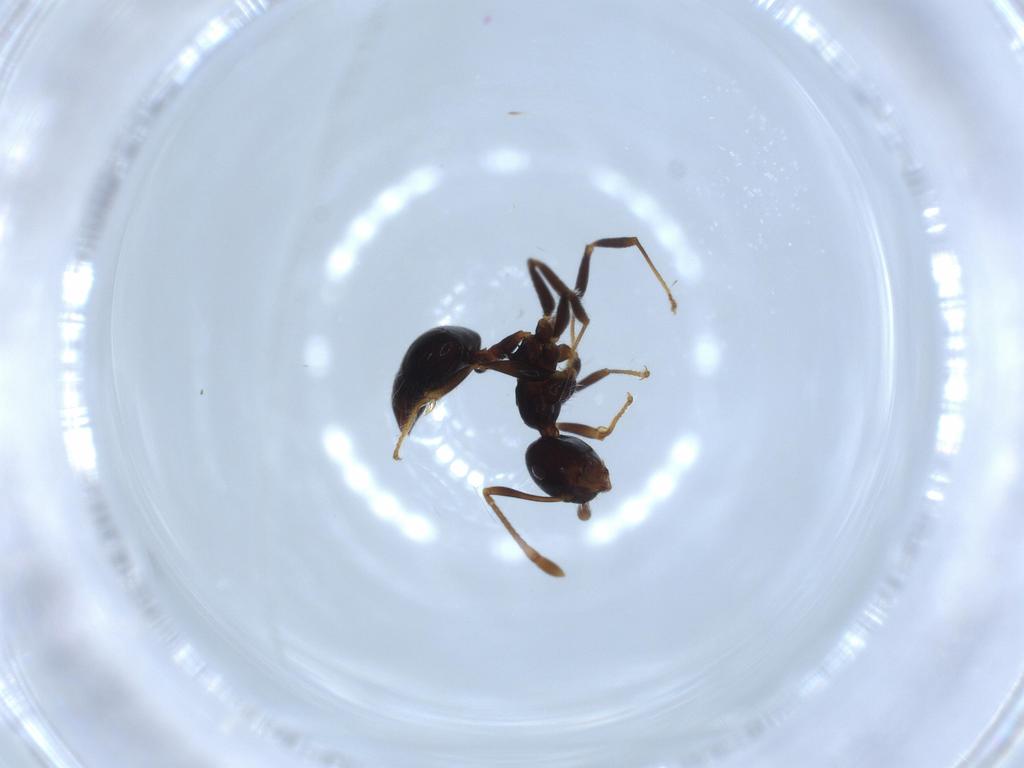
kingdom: Animalia
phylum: Arthropoda
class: Insecta
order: Hymenoptera
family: Formicidae
